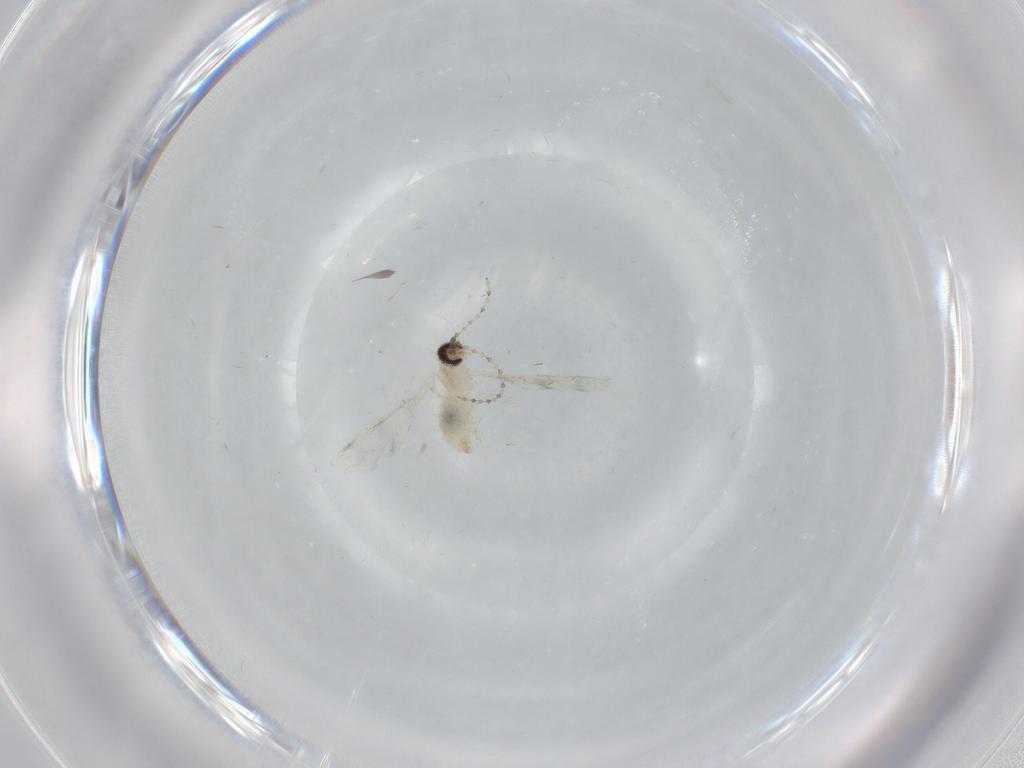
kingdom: Animalia
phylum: Arthropoda
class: Insecta
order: Diptera
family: Cecidomyiidae
